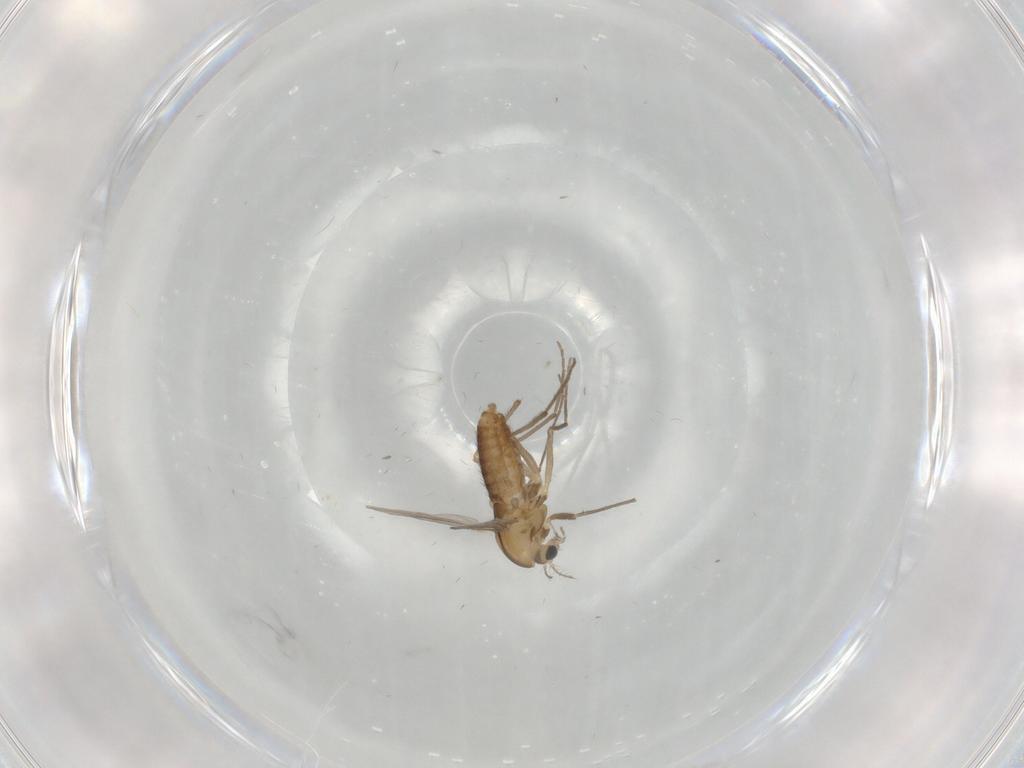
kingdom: Animalia
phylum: Arthropoda
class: Insecta
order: Diptera
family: Chironomidae
